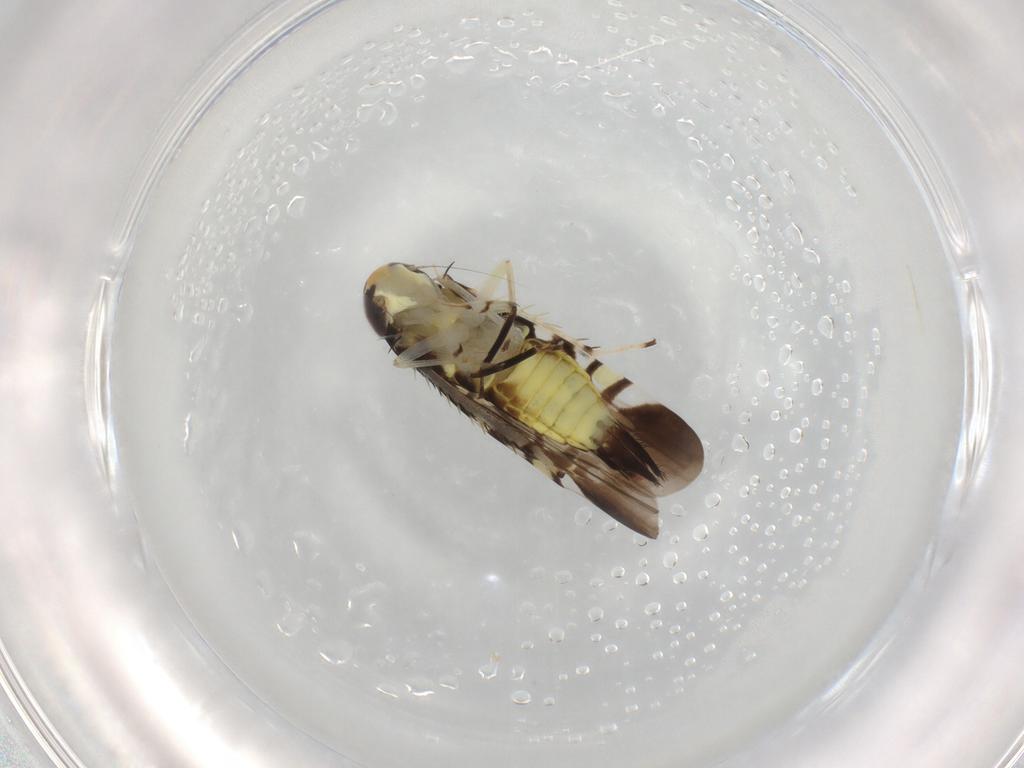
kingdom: Animalia
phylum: Arthropoda
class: Insecta
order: Hemiptera
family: Cicadellidae
